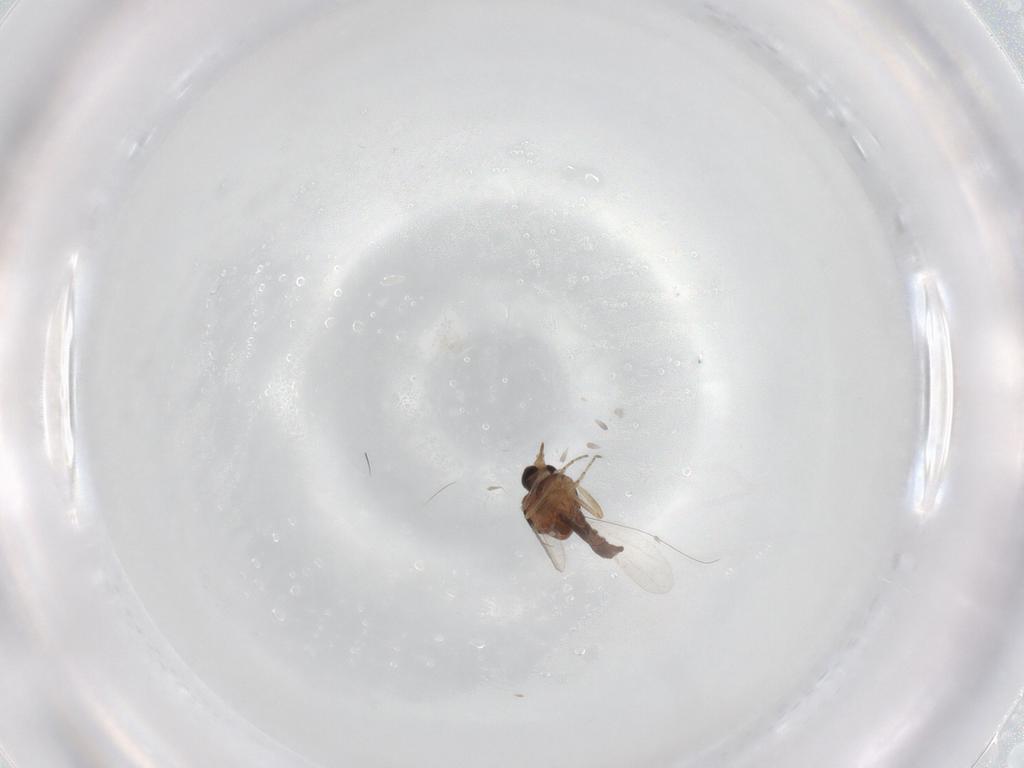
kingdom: Animalia
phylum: Arthropoda
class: Insecta
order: Diptera
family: Ceratopogonidae
